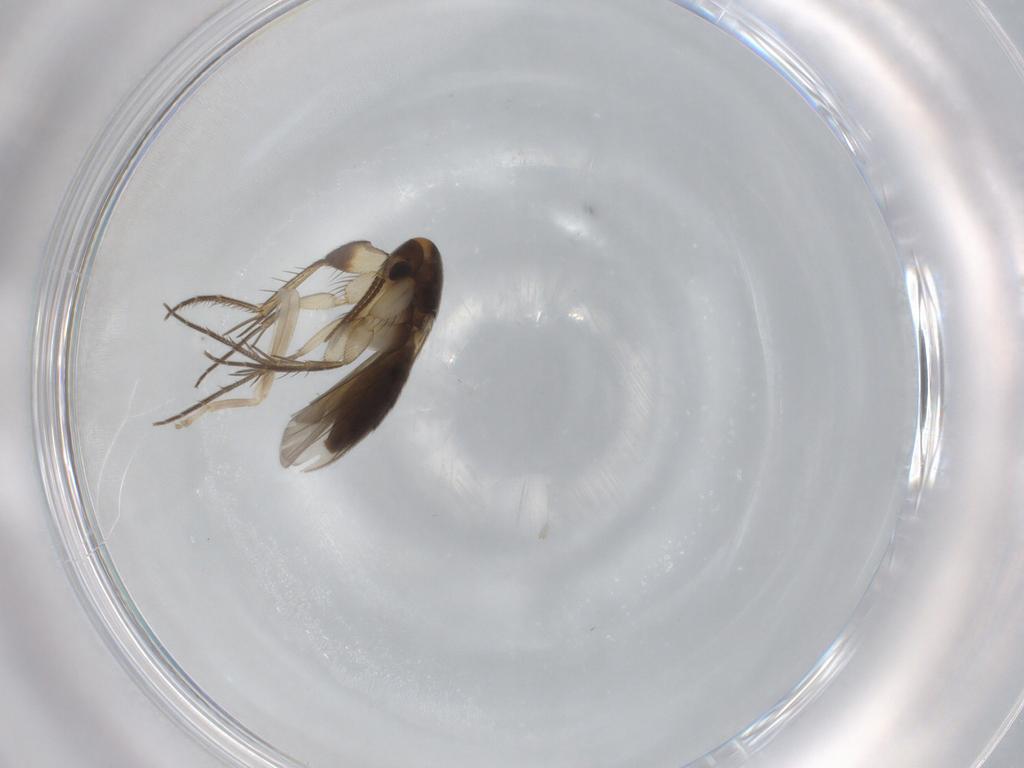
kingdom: Animalia
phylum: Arthropoda
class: Insecta
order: Diptera
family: Mycetophilidae
